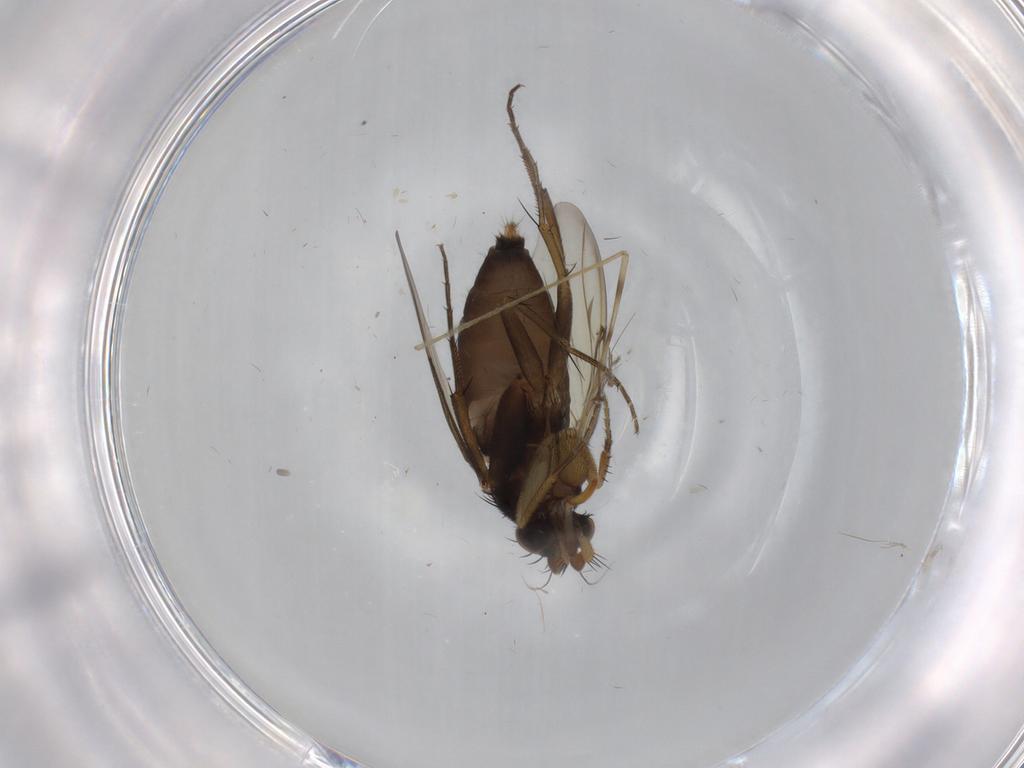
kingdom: Animalia
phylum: Arthropoda
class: Insecta
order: Diptera
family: Phoridae
